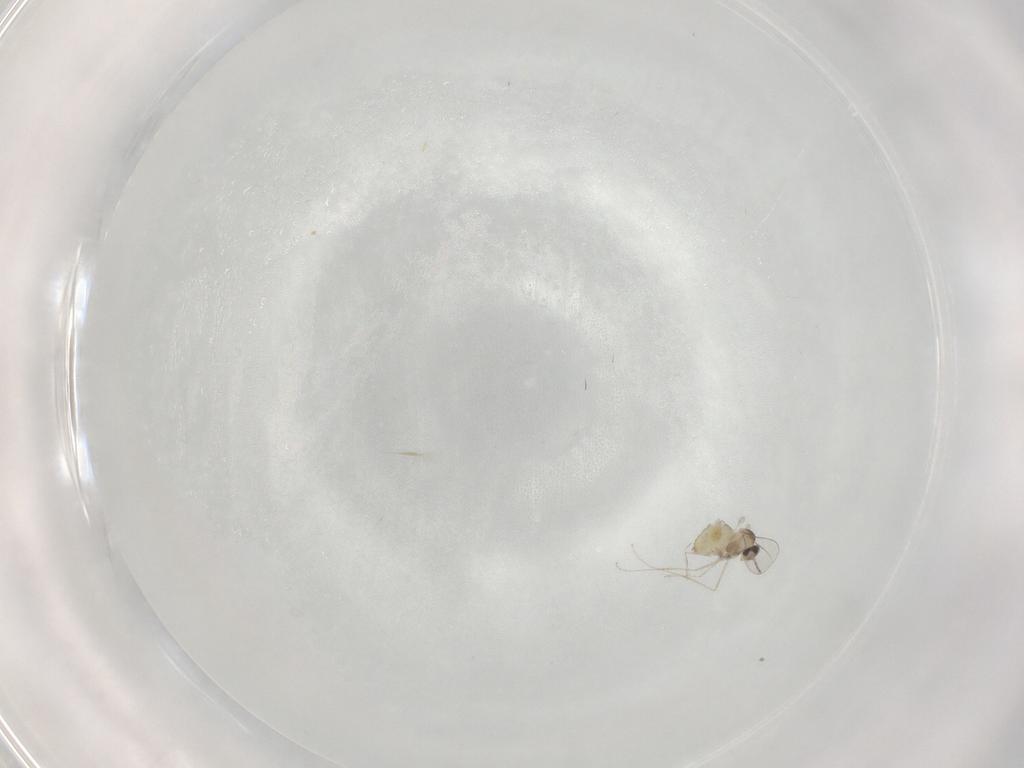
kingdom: Animalia
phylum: Arthropoda
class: Insecta
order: Diptera
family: Cecidomyiidae
